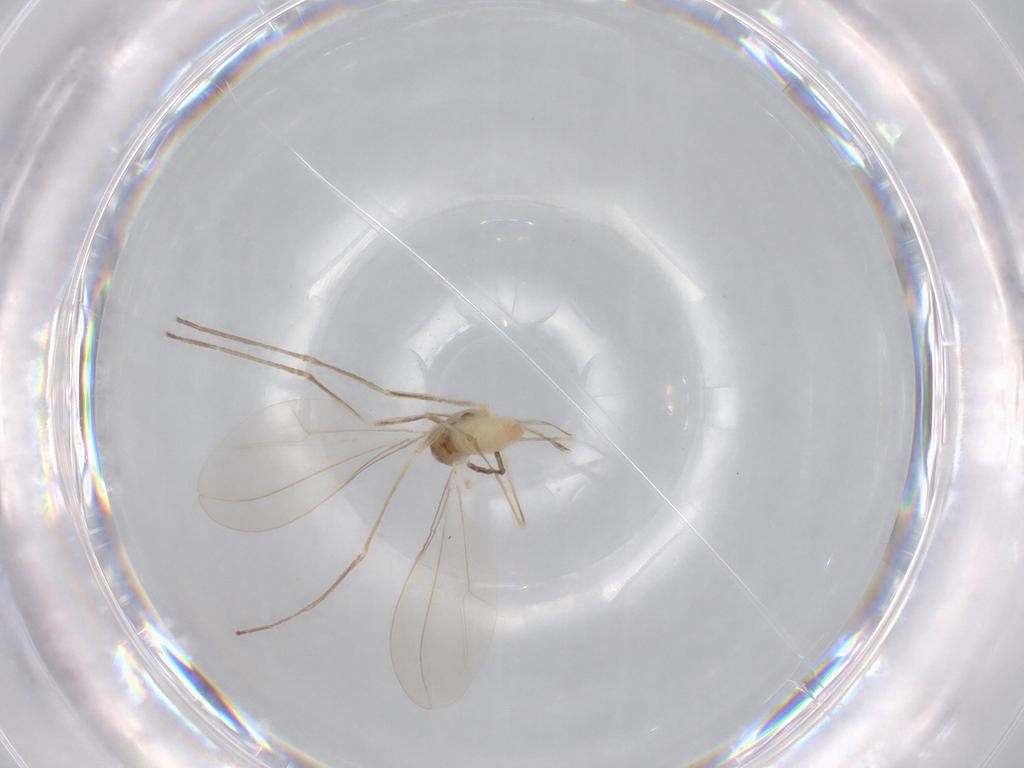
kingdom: Animalia
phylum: Arthropoda
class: Insecta
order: Diptera
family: Cecidomyiidae
